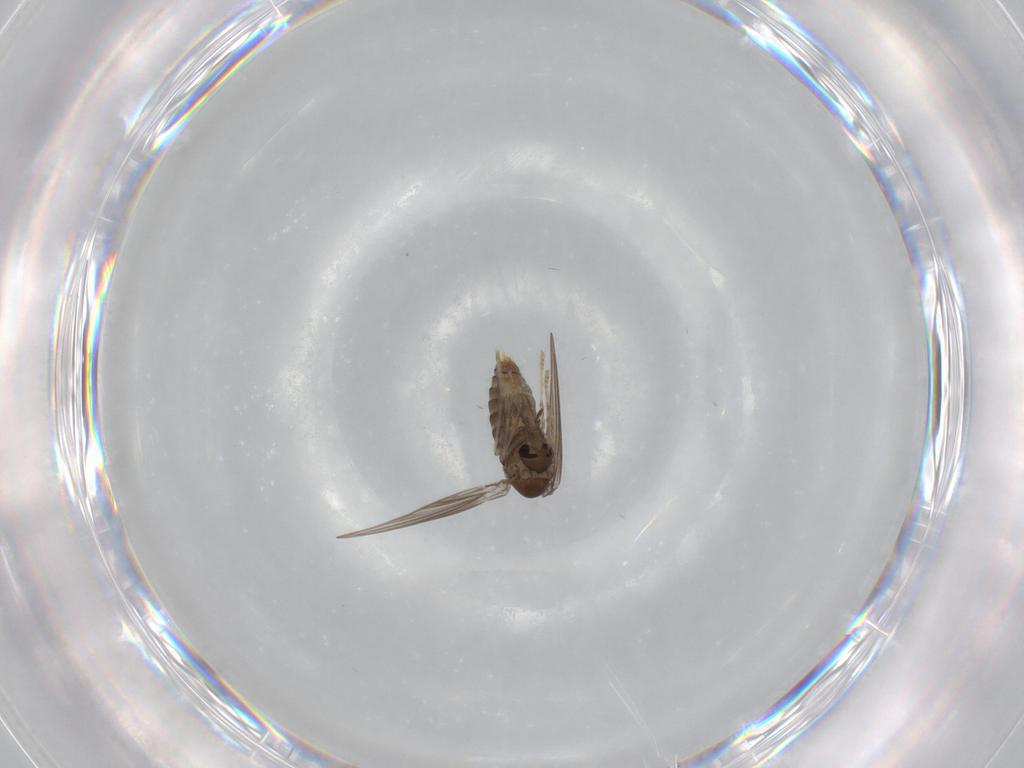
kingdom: Animalia
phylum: Arthropoda
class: Insecta
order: Diptera
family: Psychodidae
